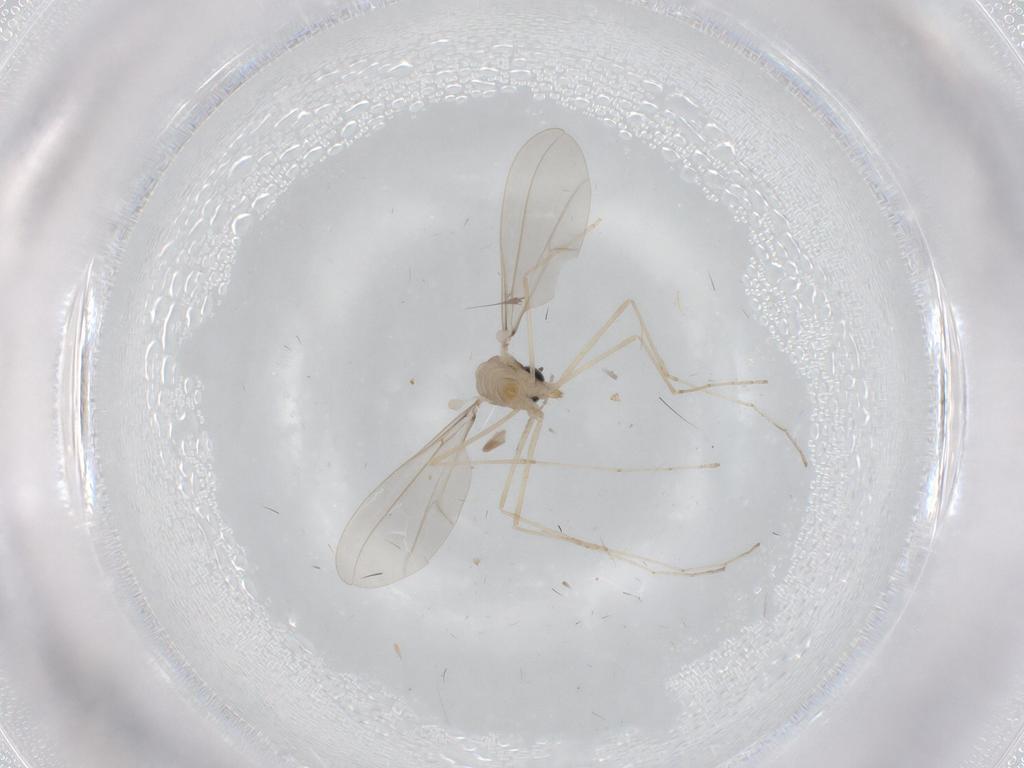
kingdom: Animalia
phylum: Arthropoda
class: Insecta
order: Diptera
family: Cecidomyiidae
